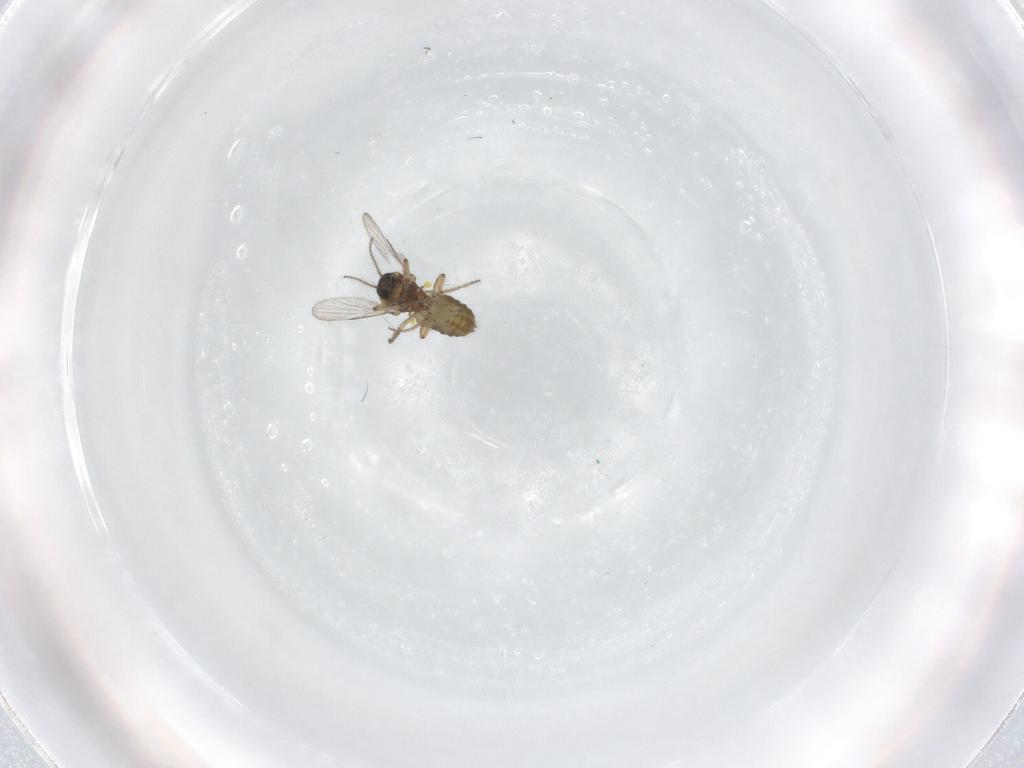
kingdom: Animalia
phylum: Arthropoda
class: Insecta
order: Diptera
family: Ceratopogonidae
